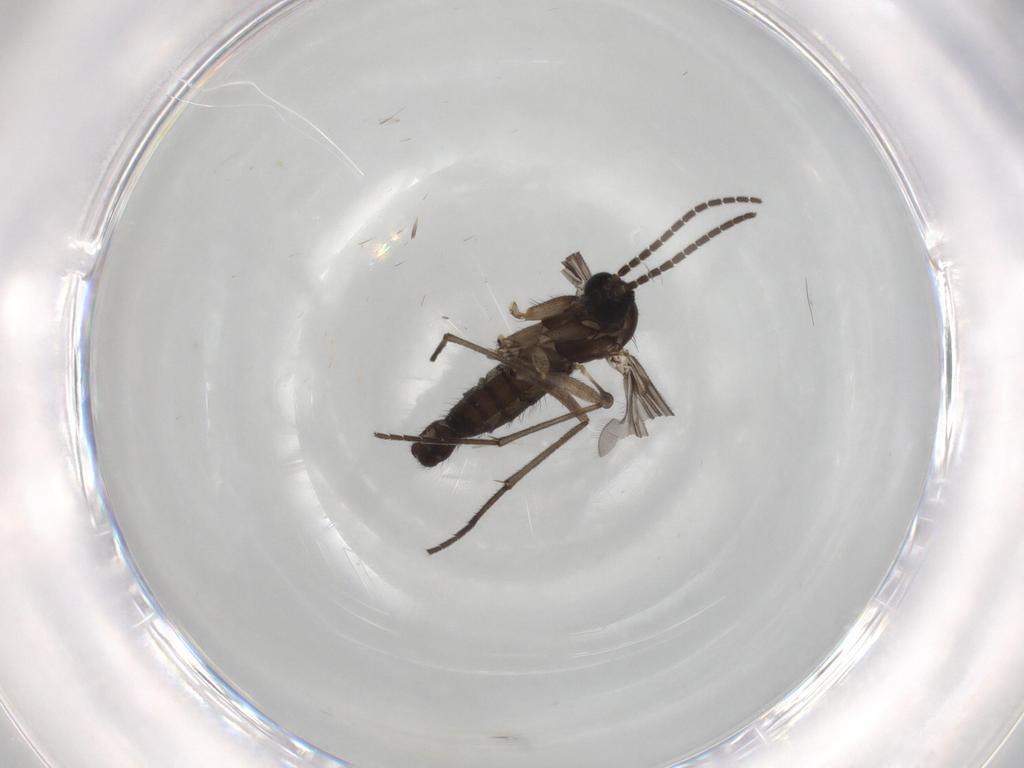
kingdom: Animalia
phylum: Arthropoda
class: Insecta
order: Diptera
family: Sciaridae
